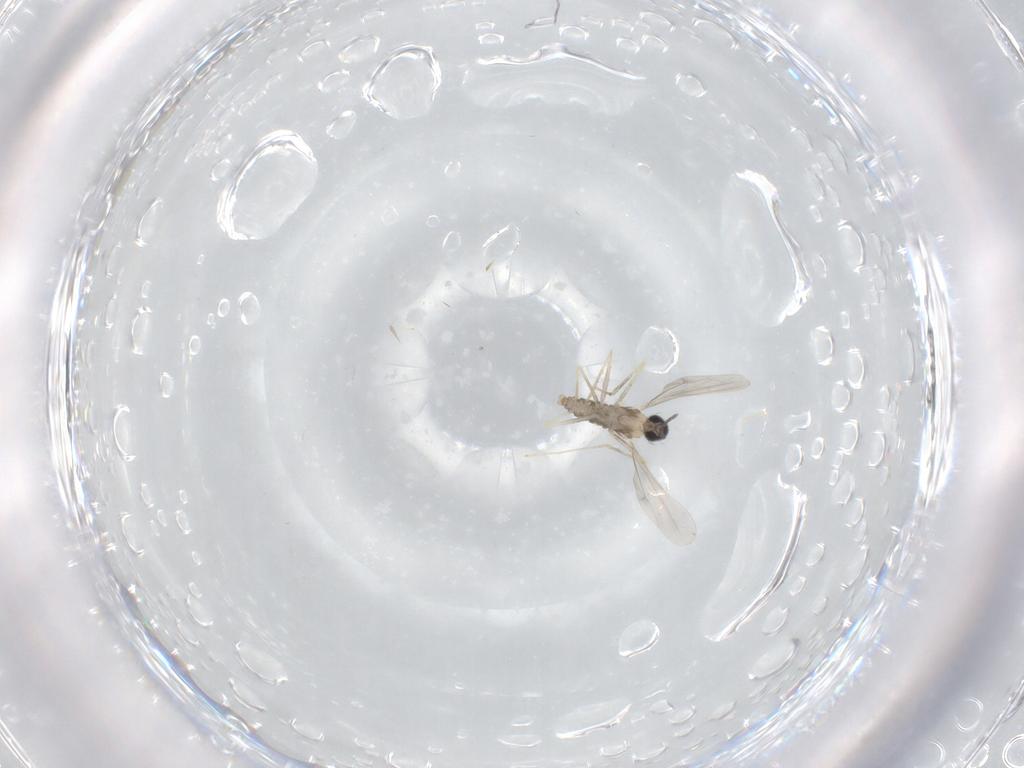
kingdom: Animalia
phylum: Arthropoda
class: Insecta
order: Diptera
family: Cecidomyiidae
